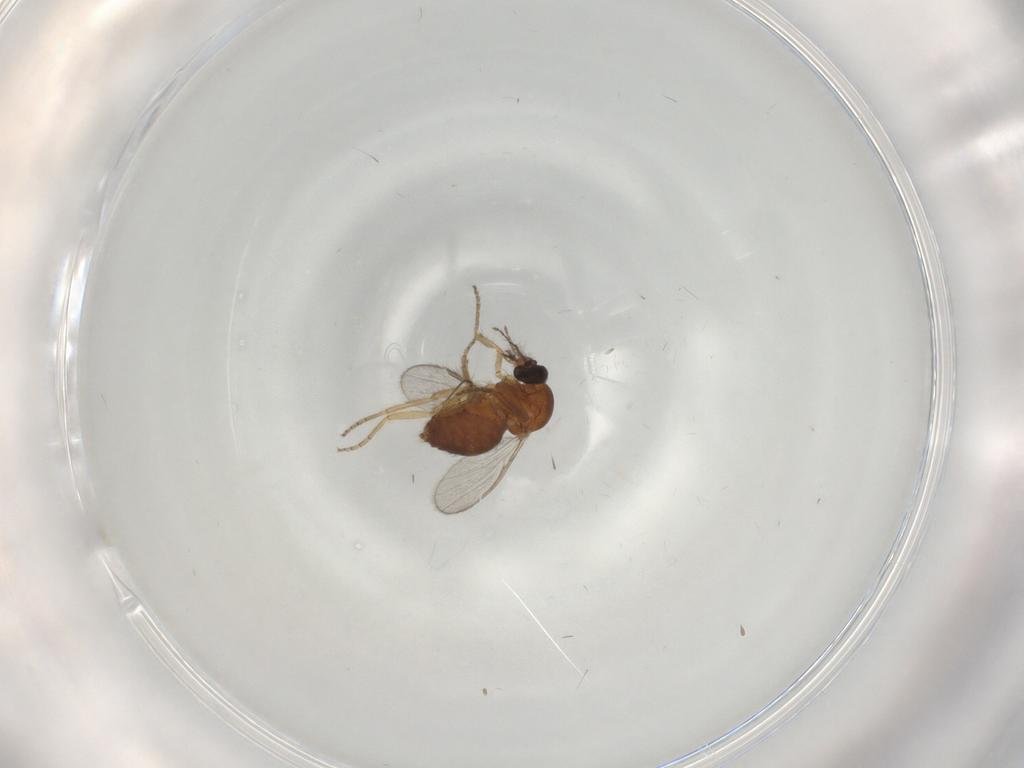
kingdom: Animalia
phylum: Arthropoda
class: Insecta
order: Diptera
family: Ceratopogonidae
